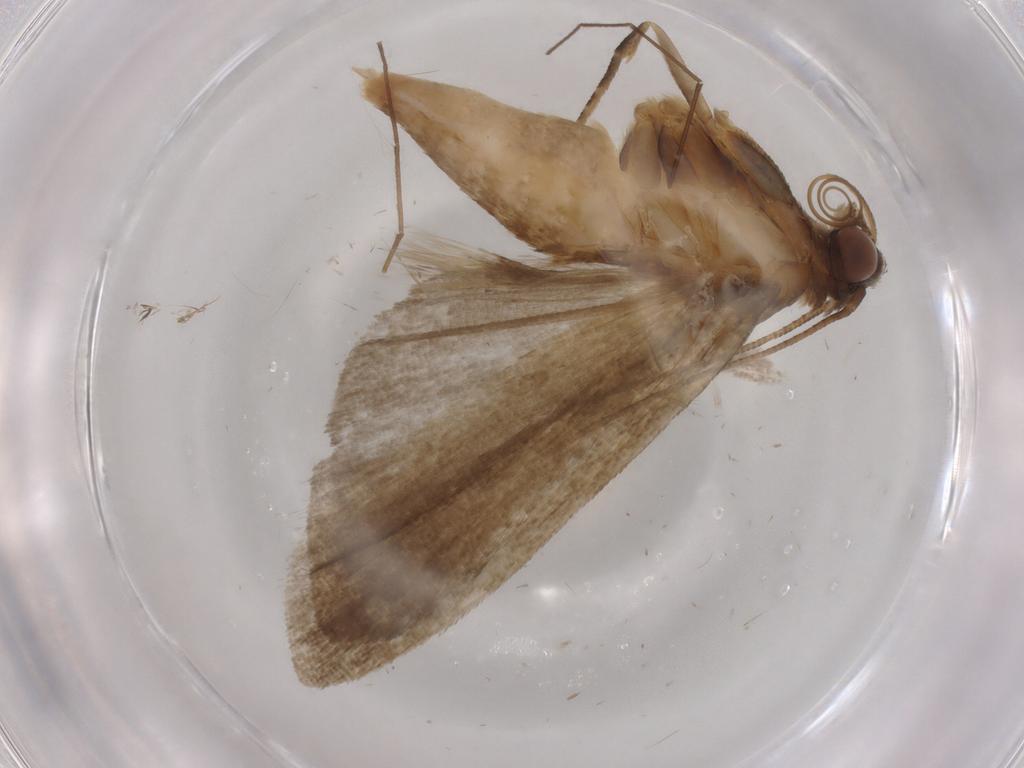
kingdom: Animalia
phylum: Arthropoda
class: Insecta
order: Lepidoptera
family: Noctuidae
